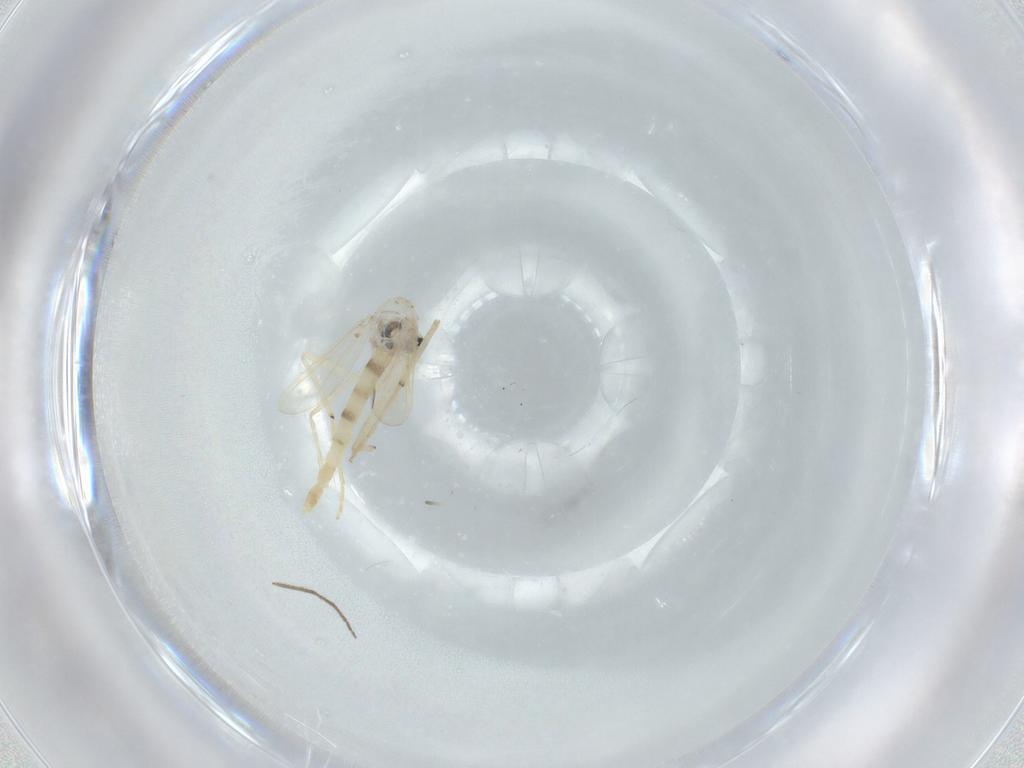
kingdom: Animalia
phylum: Arthropoda
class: Insecta
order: Diptera
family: Chironomidae
